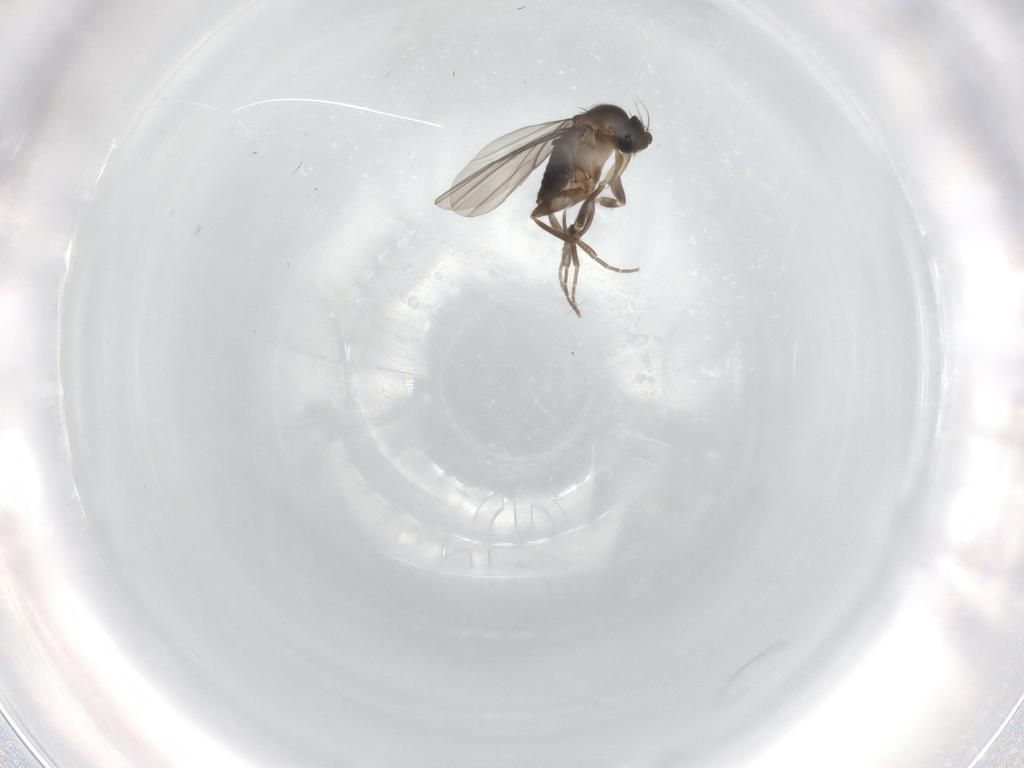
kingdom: Animalia
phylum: Arthropoda
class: Insecta
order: Diptera
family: Phoridae
